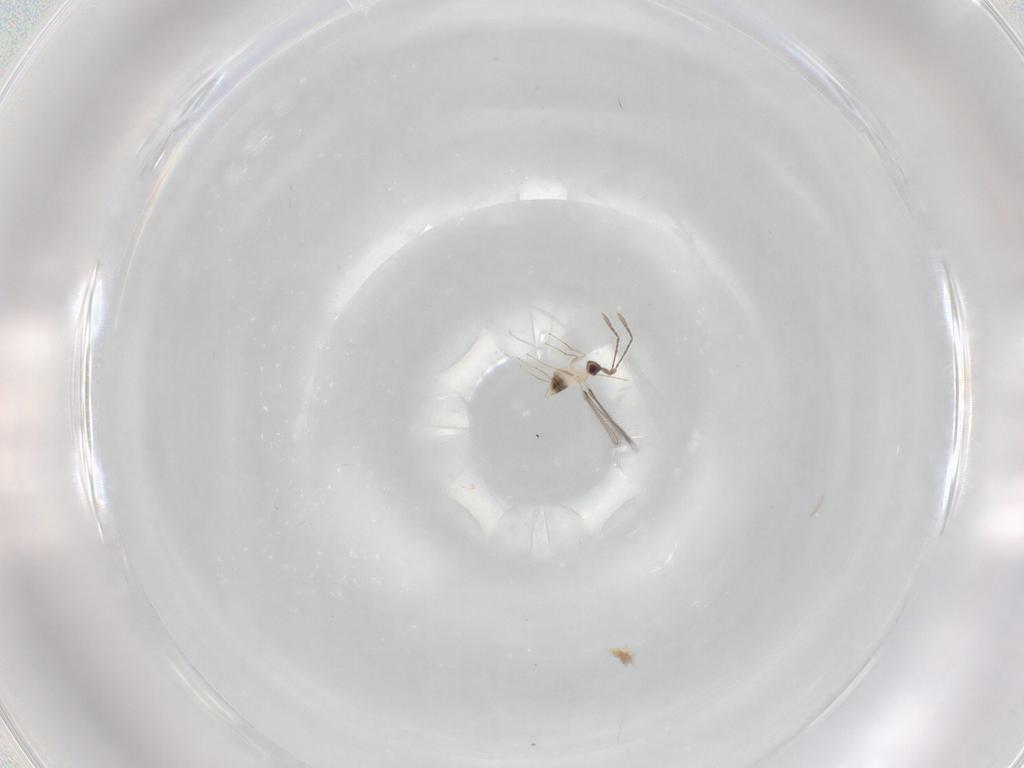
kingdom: Animalia
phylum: Arthropoda
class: Insecta
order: Hymenoptera
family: Mymaridae
